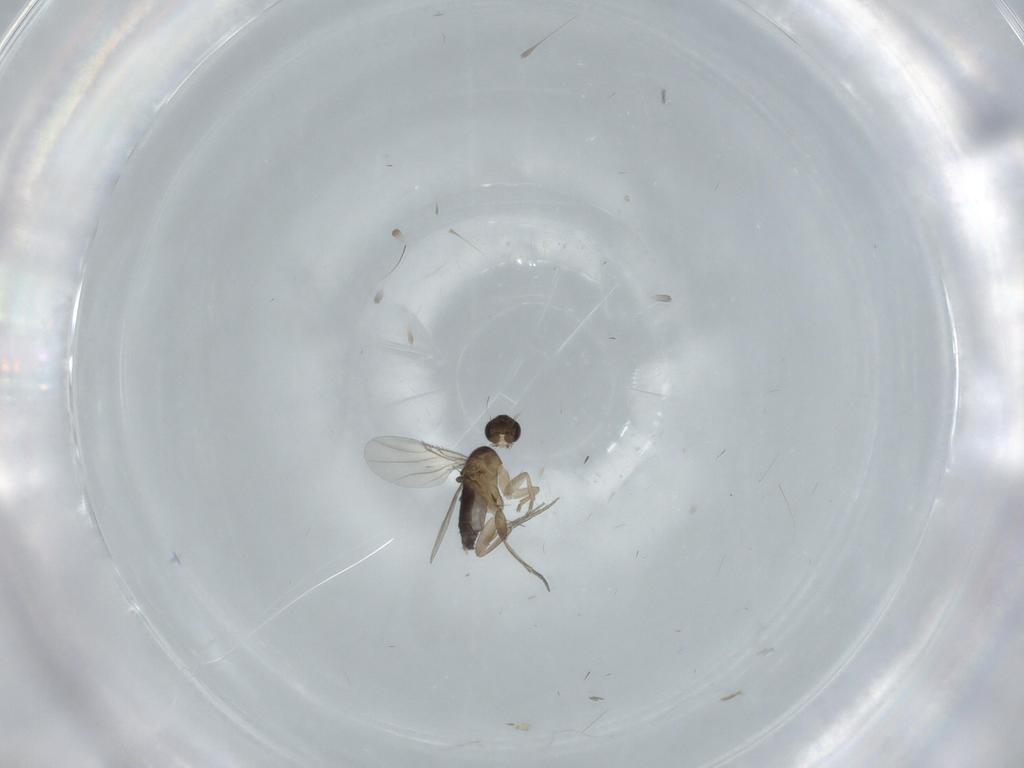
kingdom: Animalia
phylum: Arthropoda
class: Insecta
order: Diptera
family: Phoridae
